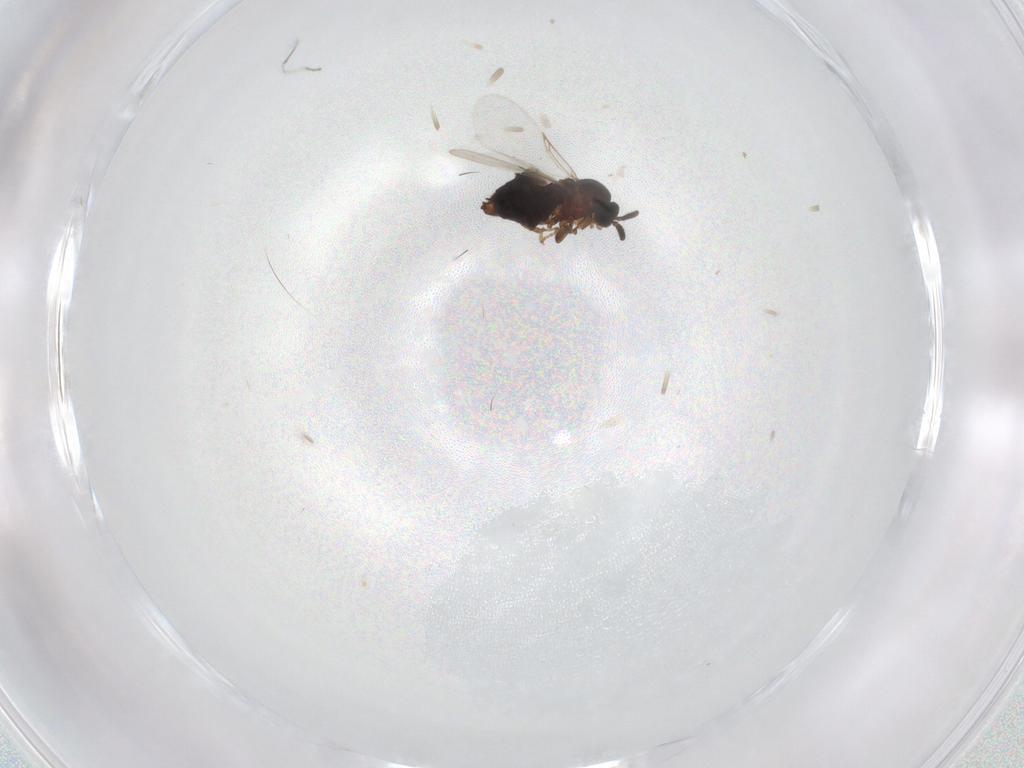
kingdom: Animalia
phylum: Arthropoda
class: Insecta
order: Diptera
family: Scatopsidae
